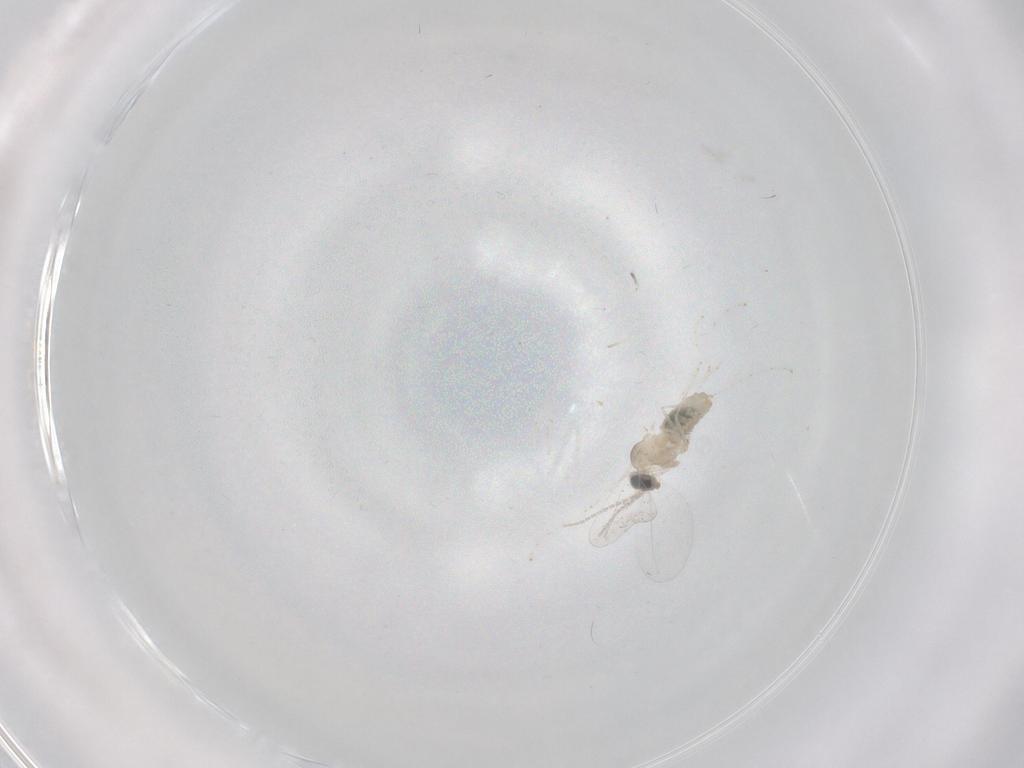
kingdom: Animalia
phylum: Arthropoda
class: Insecta
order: Diptera
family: Cecidomyiidae
